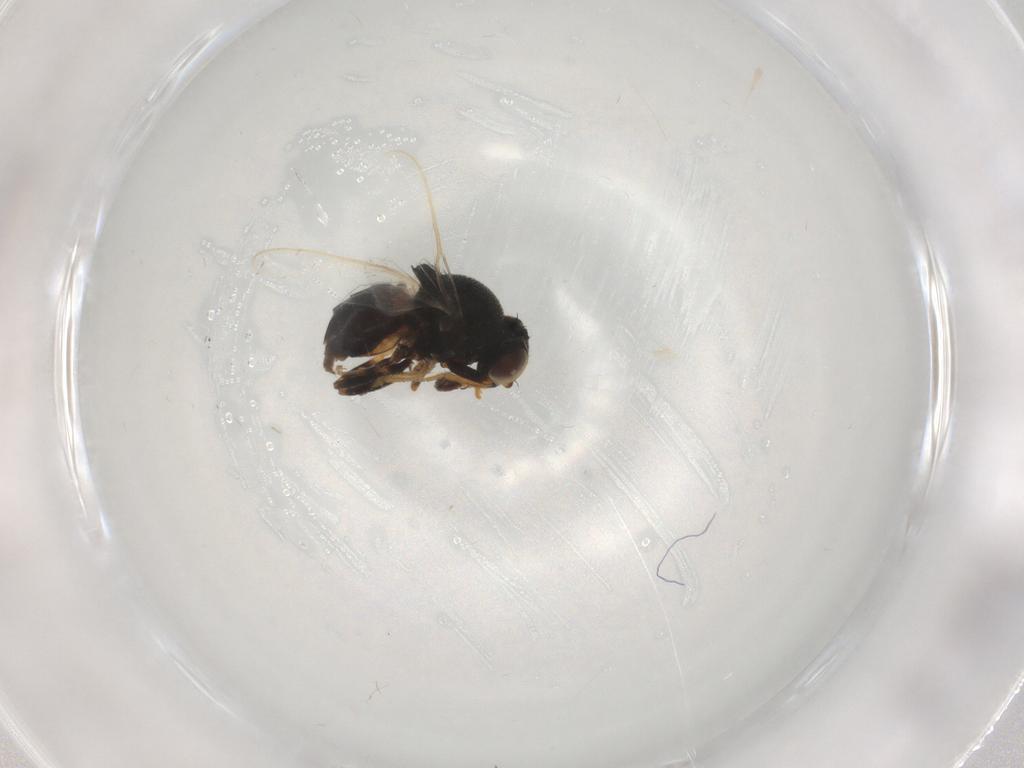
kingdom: Animalia
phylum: Arthropoda
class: Insecta
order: Diptera
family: Chloropidae
